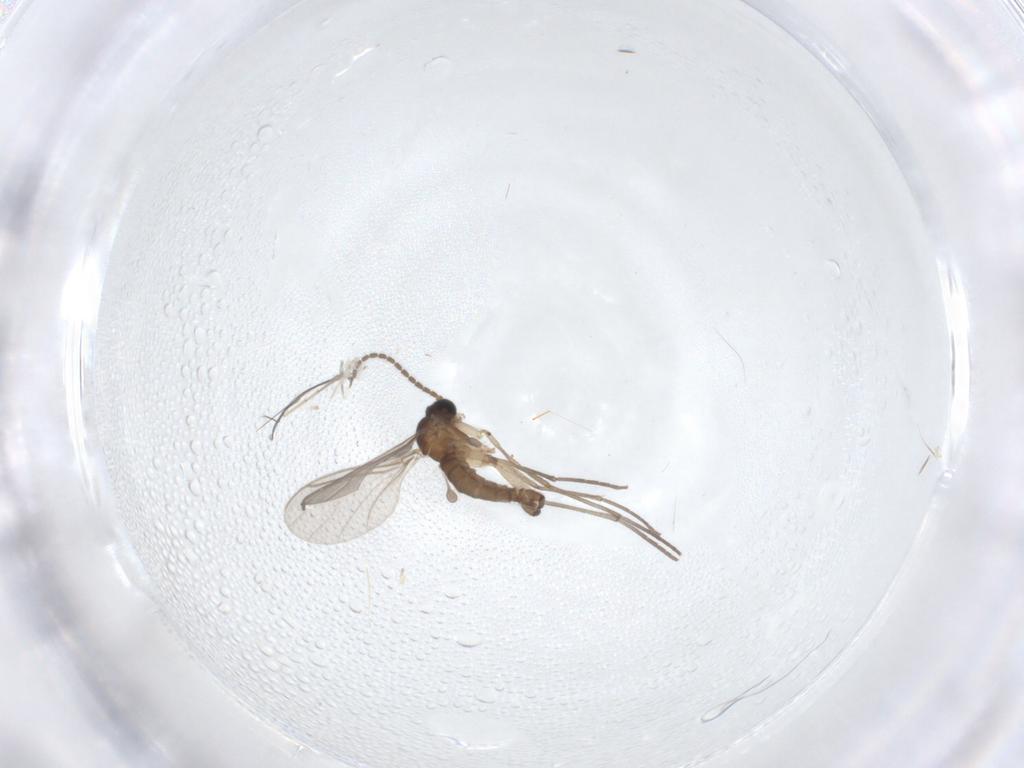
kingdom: Animalia
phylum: Arthropoda
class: Insecta
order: Diptera
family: Sciaridae
